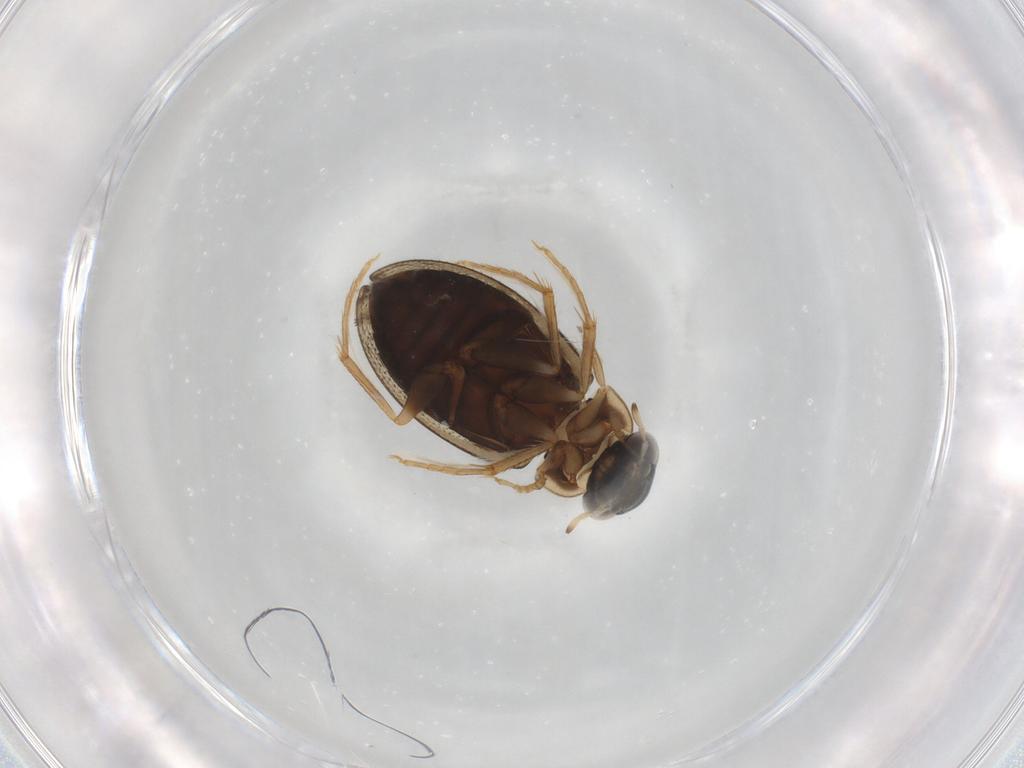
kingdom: Animalia
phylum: Arthropoda
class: Insecta
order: Coleoptera
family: Hydrophilidae
